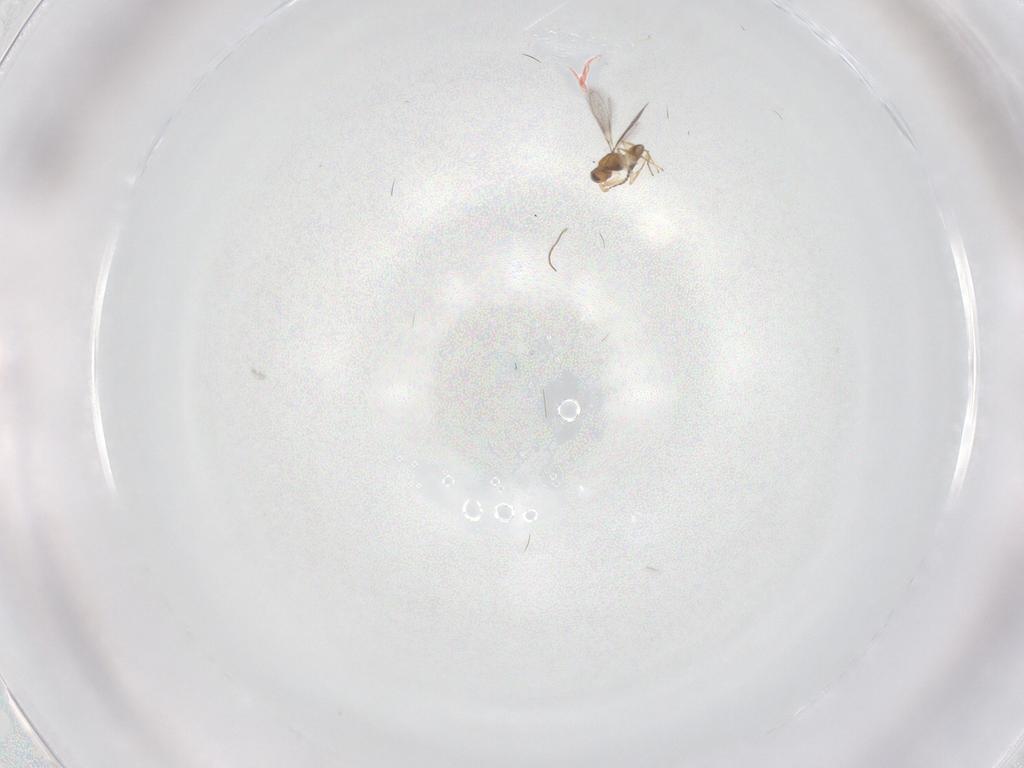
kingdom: Animalia
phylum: Arthropoda
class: Insecta
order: Hymenoptera
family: Mymaridae
